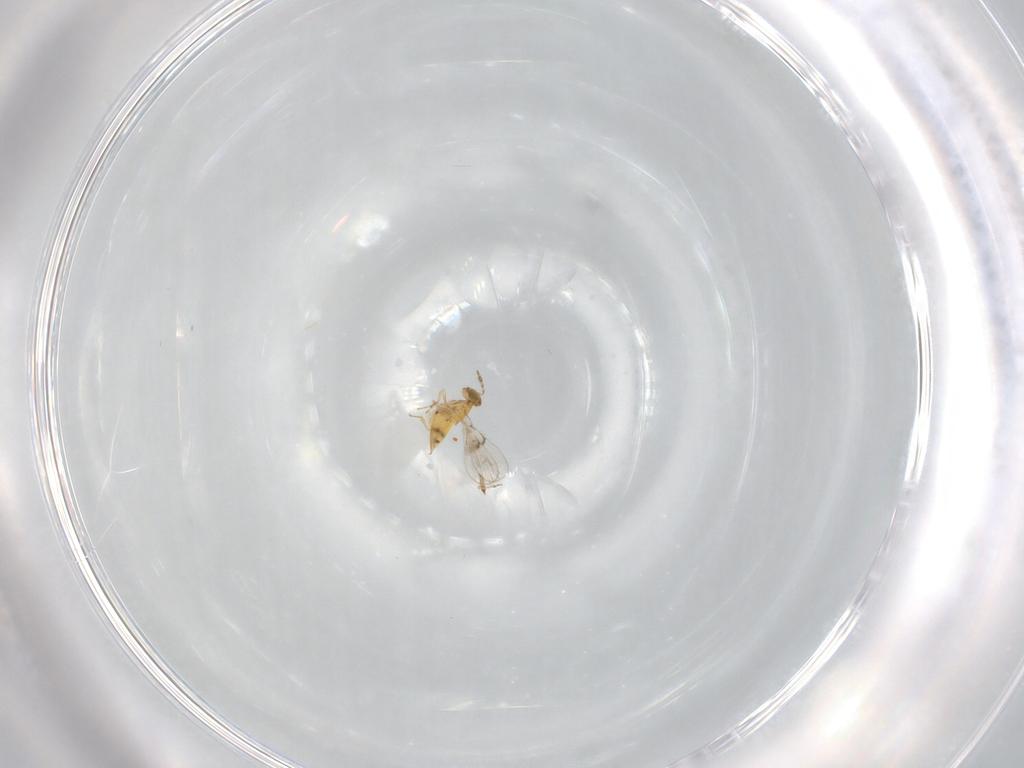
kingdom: Animalia
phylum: Arthropoda
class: Insecta
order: Hymenoptera
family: Trichogrammatidae
